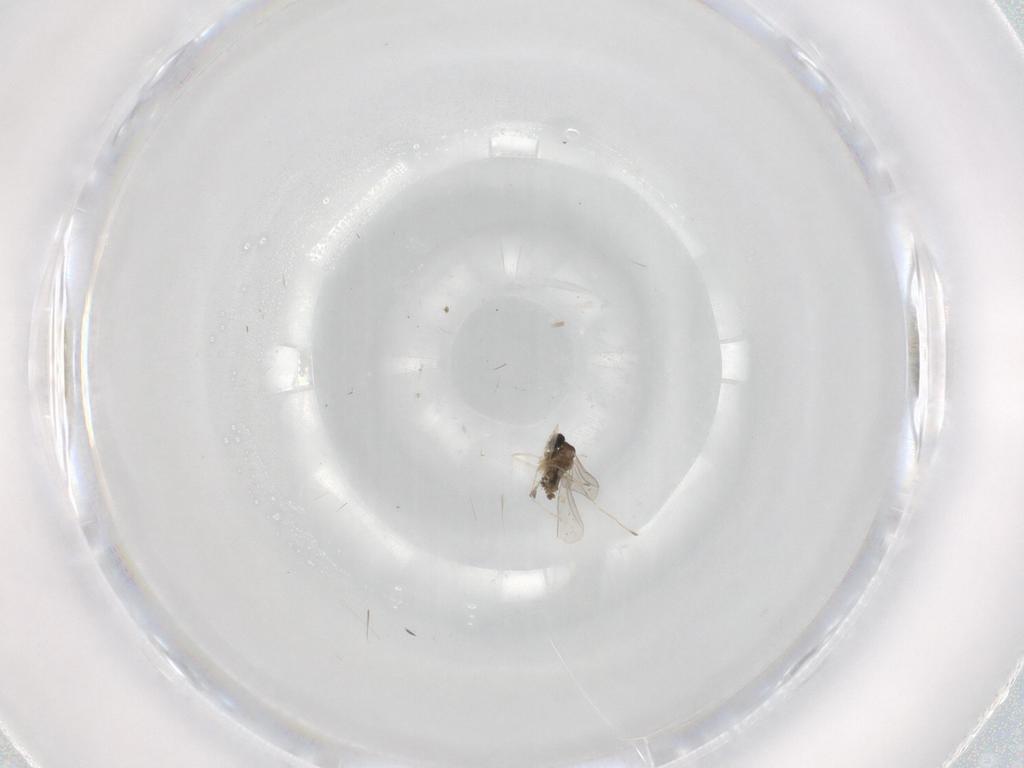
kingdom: Animalia
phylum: Arthropoda
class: Insecta
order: Diptera
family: Cecidomyiidae
